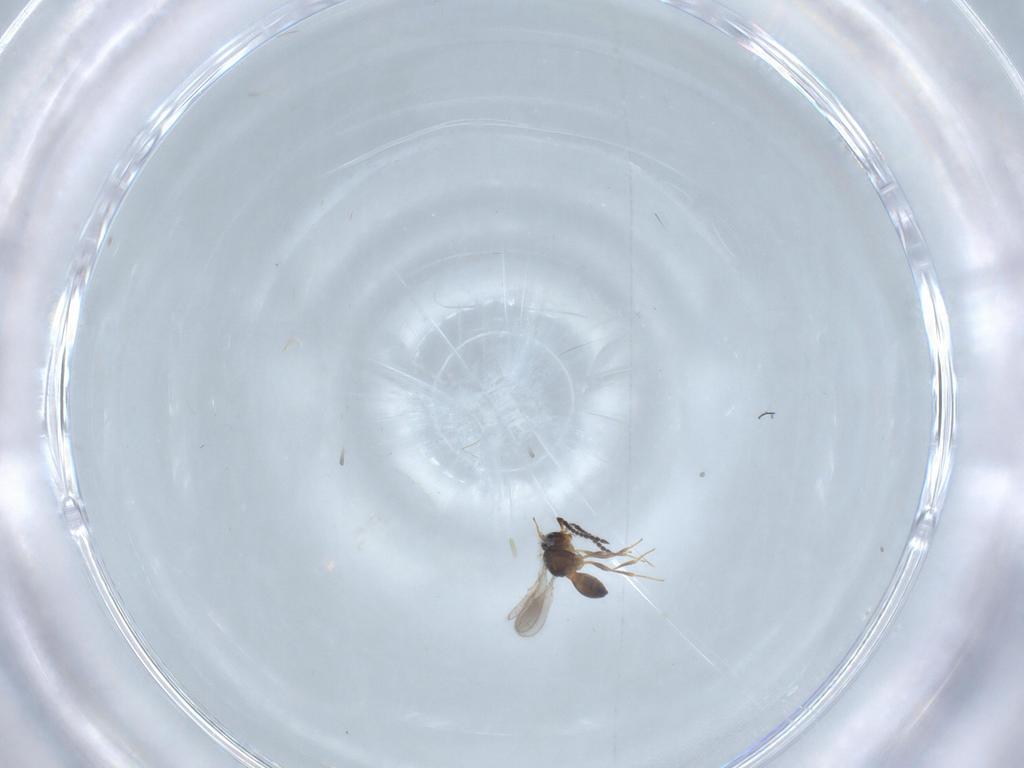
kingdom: Animalia
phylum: Arthropoda
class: Insecta
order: Hymenoptera
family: Scelionidae
